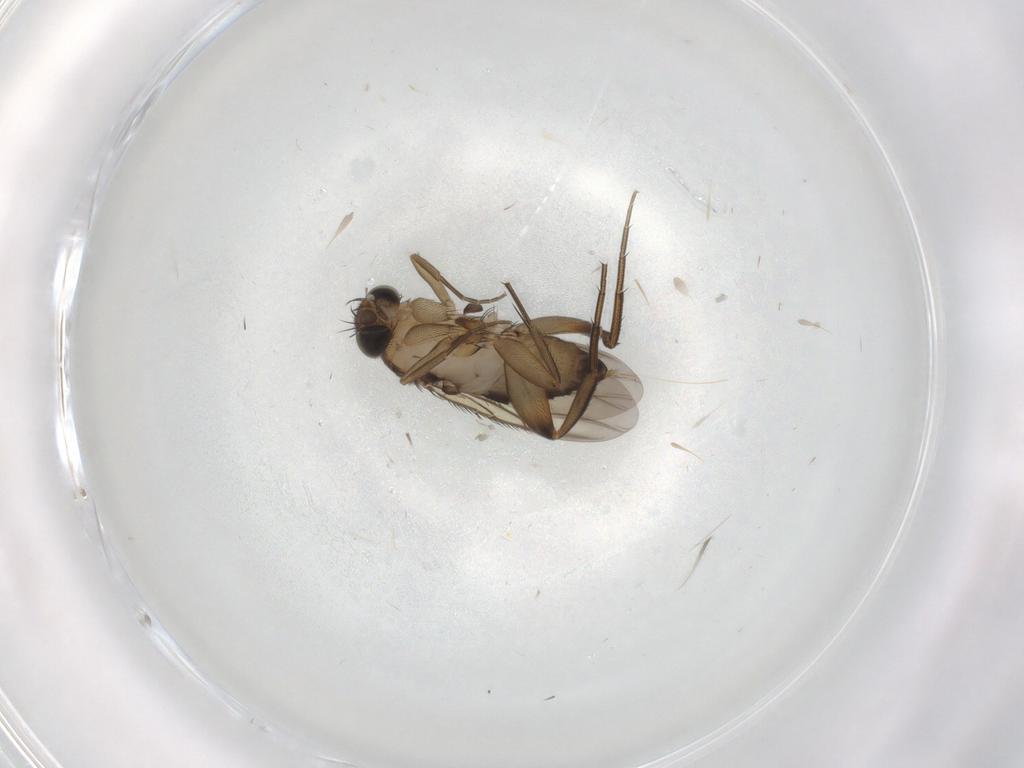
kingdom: Animalia
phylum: Arthropoda
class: Insecta
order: Diptera
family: Phoridae
